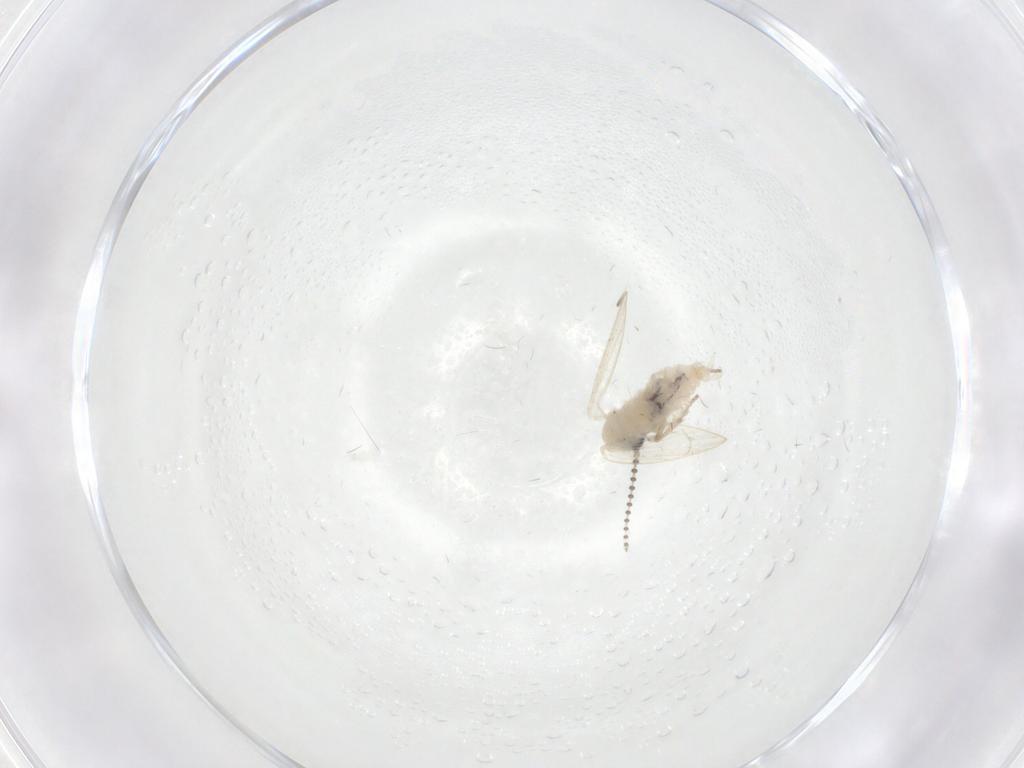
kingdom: Animalia
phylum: Arthropoda
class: Insecta
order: Diptera
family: Psychodidae
